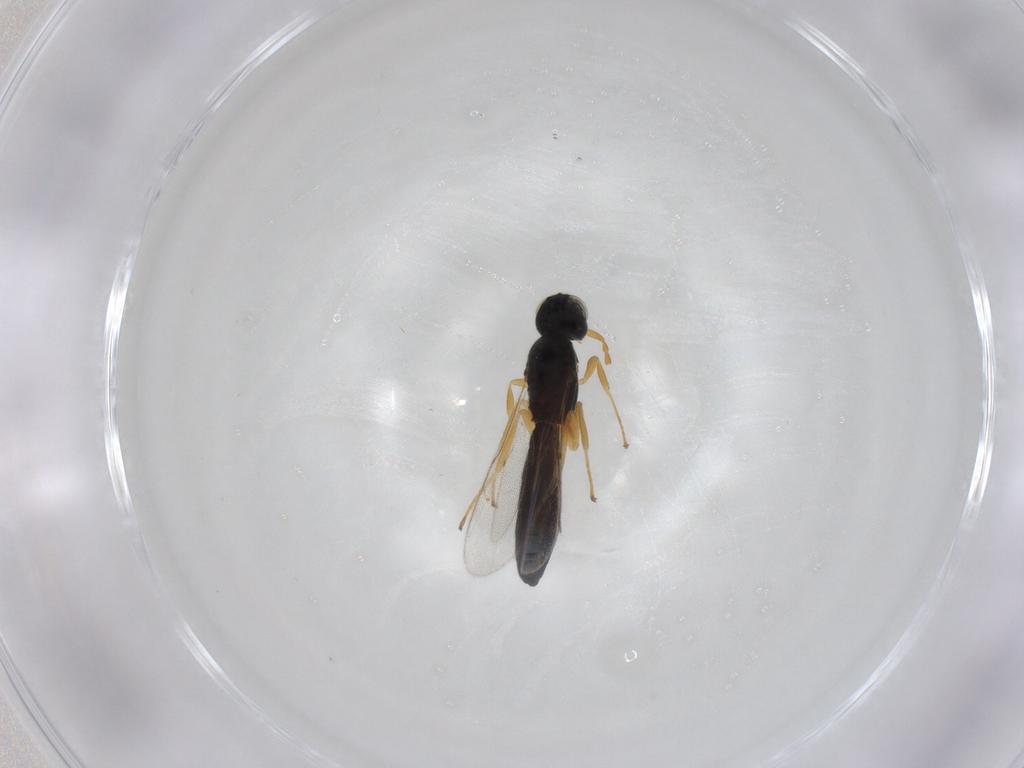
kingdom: Animalia
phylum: Arthropoda
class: Insecta
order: Hymenoptera
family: Scelionidae
